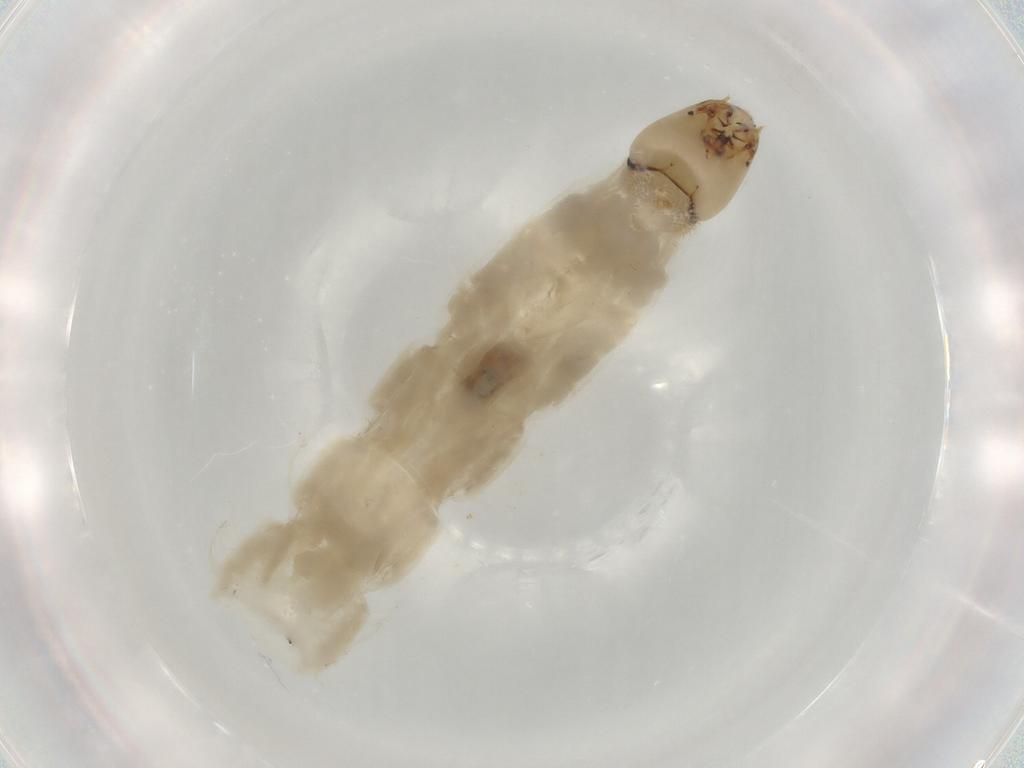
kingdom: Animalia
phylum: Arthropoda
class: Insecta
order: Diptera
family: Chironomidae
